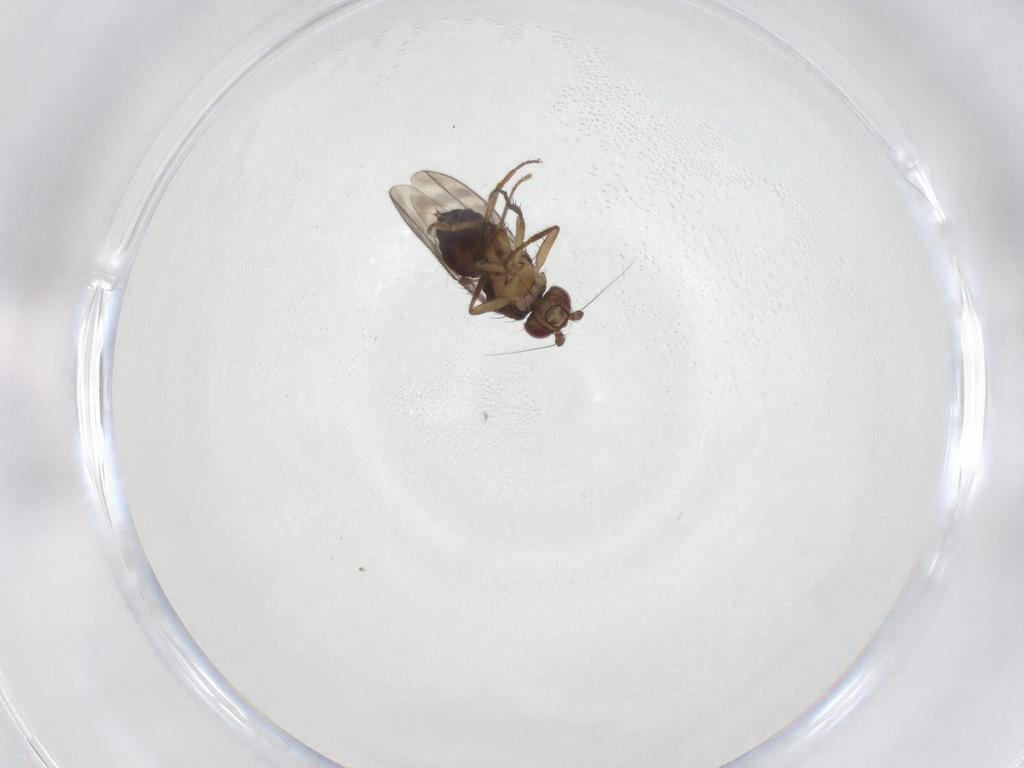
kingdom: Animalia
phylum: Arthropoda
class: Insecta
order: Diptera
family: Sphaeroceridae
